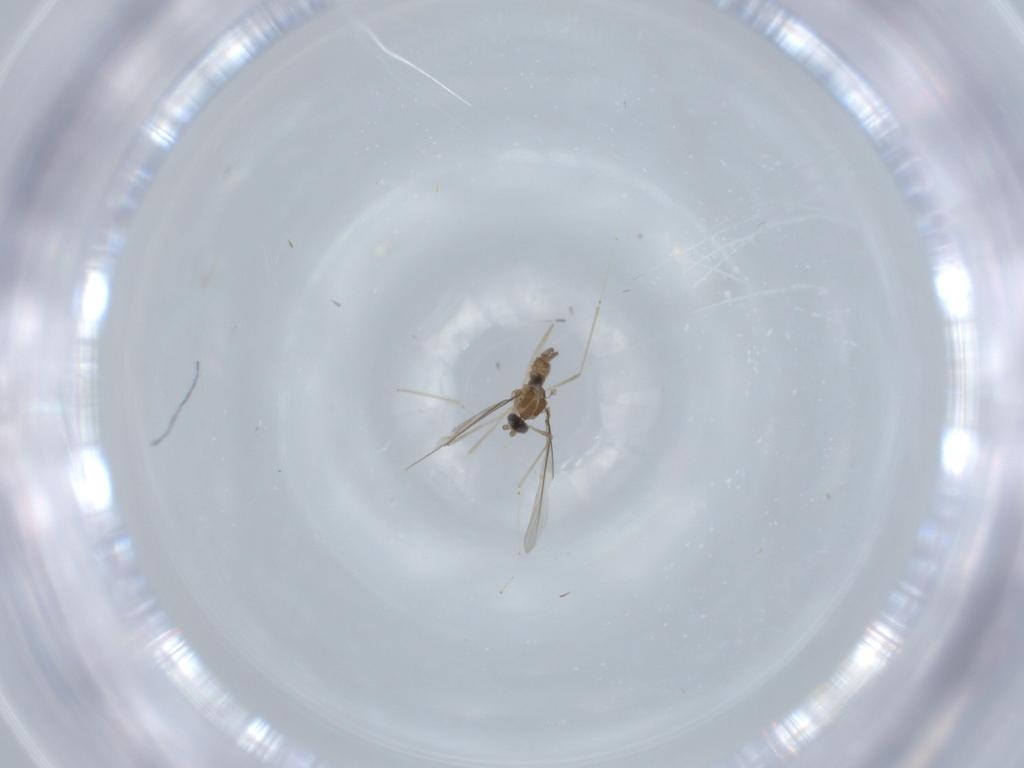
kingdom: Animalia
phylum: Arthropoda
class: Insecta
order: Diptera
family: Cecidomyiidae
